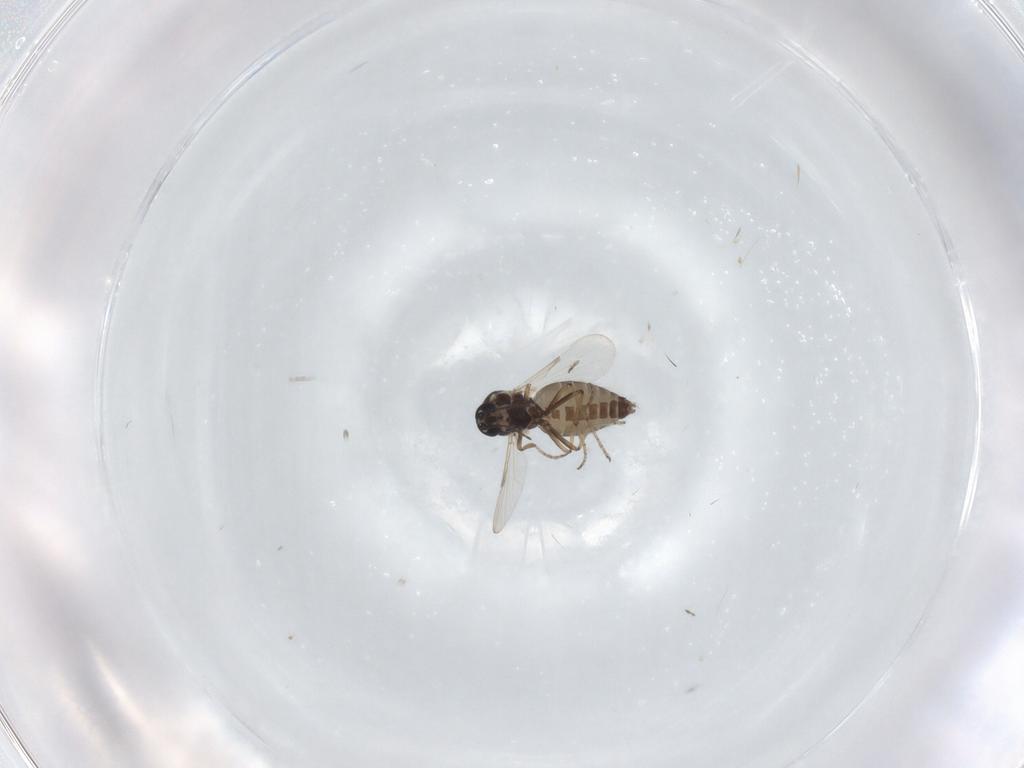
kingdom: Animalia
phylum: Arthropoda
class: Insecta
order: Diptera
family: Ceratopogonidae
